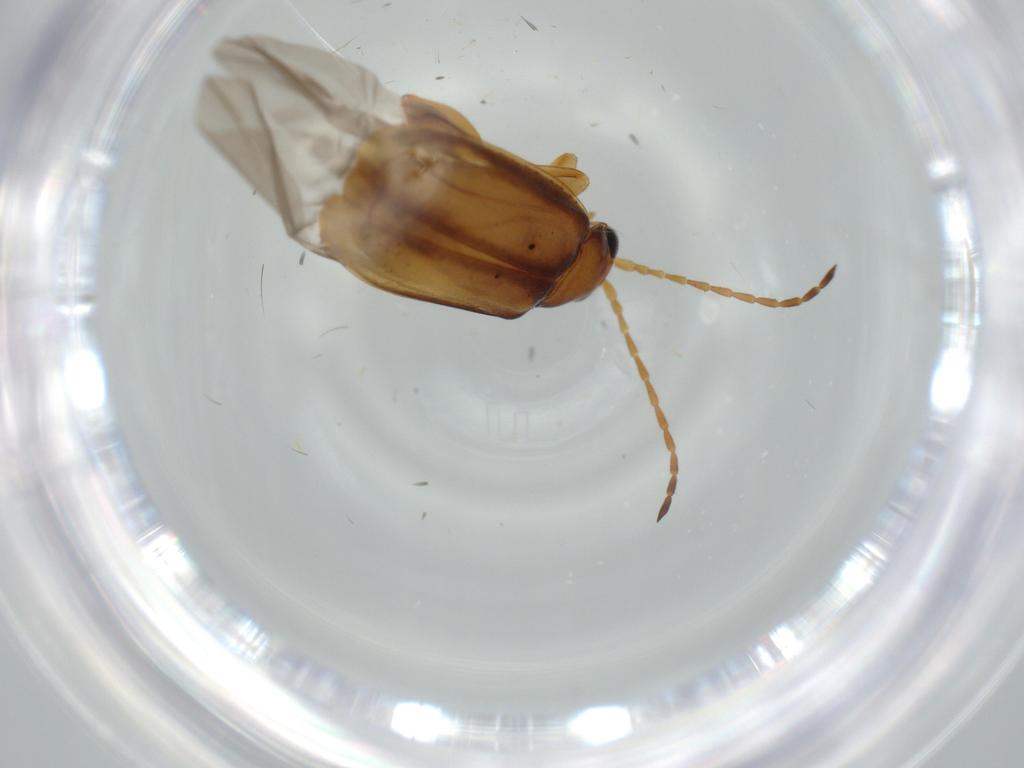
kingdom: Animalia
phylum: Arthropoda
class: Insecta
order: Coleoptera
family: Chrysomelidae
